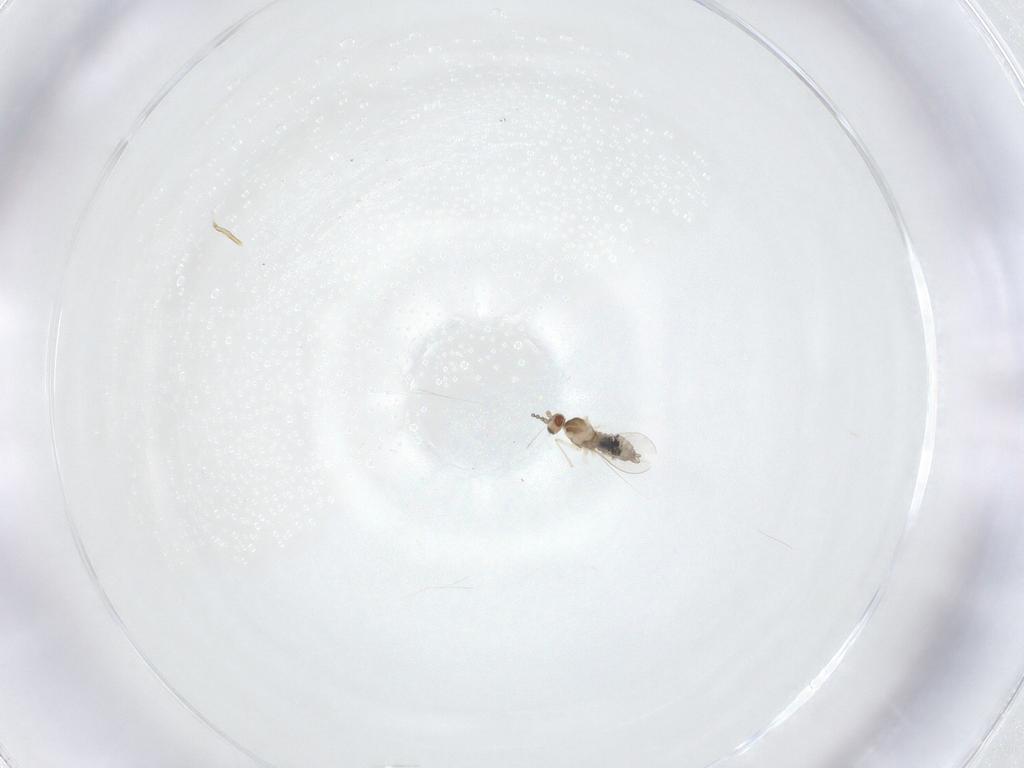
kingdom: Animalia
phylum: Arthropoda
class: Insecta
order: Diptera
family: Cecidomyiidae
